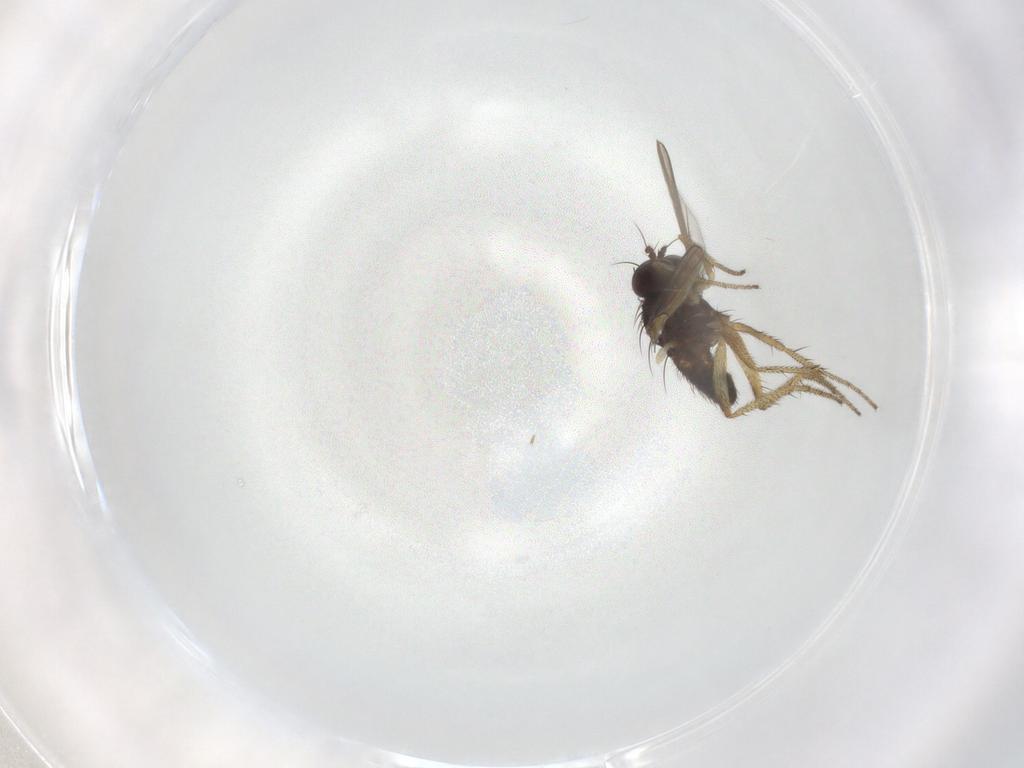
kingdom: Animalia
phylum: Arthropoda
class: Insecta
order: Diptera
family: Dolichopodidae
